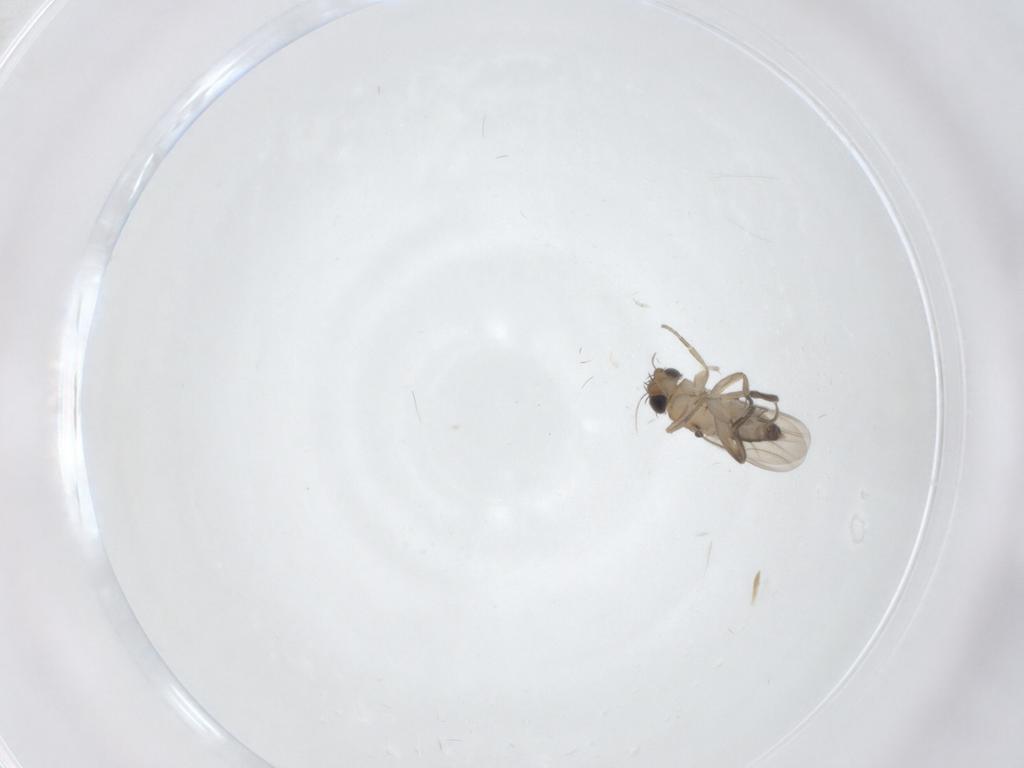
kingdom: Animalia
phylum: Arthropoda
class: Insecta
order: Diptera
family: Phoridae
